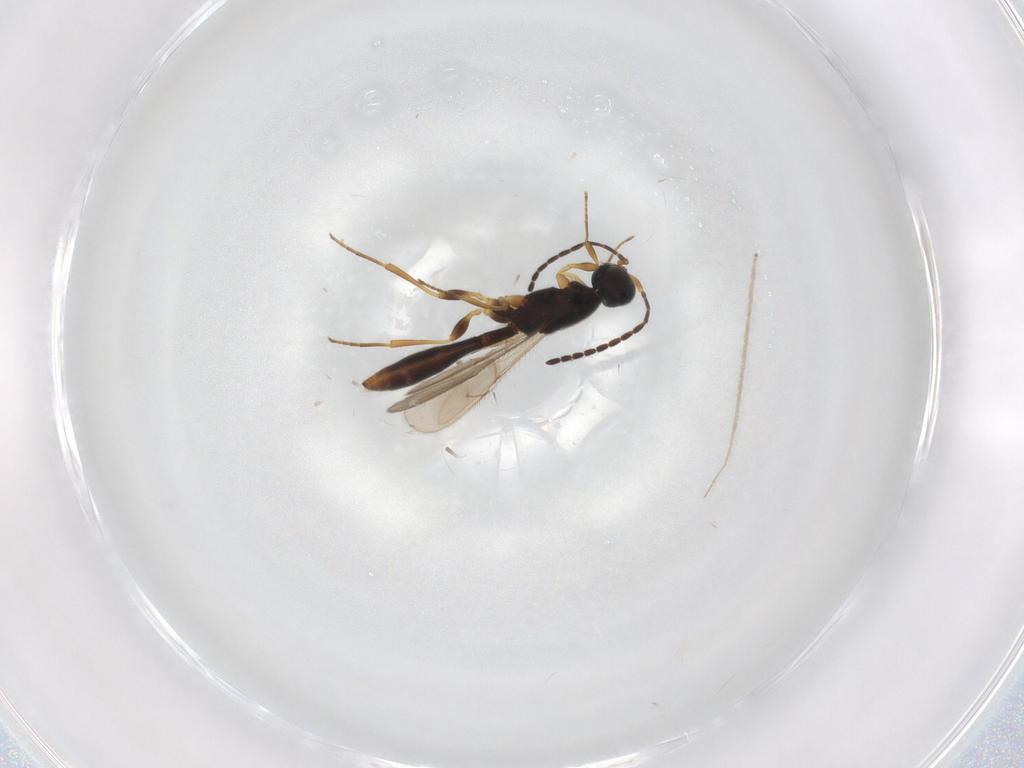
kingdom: Animalia
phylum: Arthropoda
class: Insecta
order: Hymenoptera
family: Scelionidae
